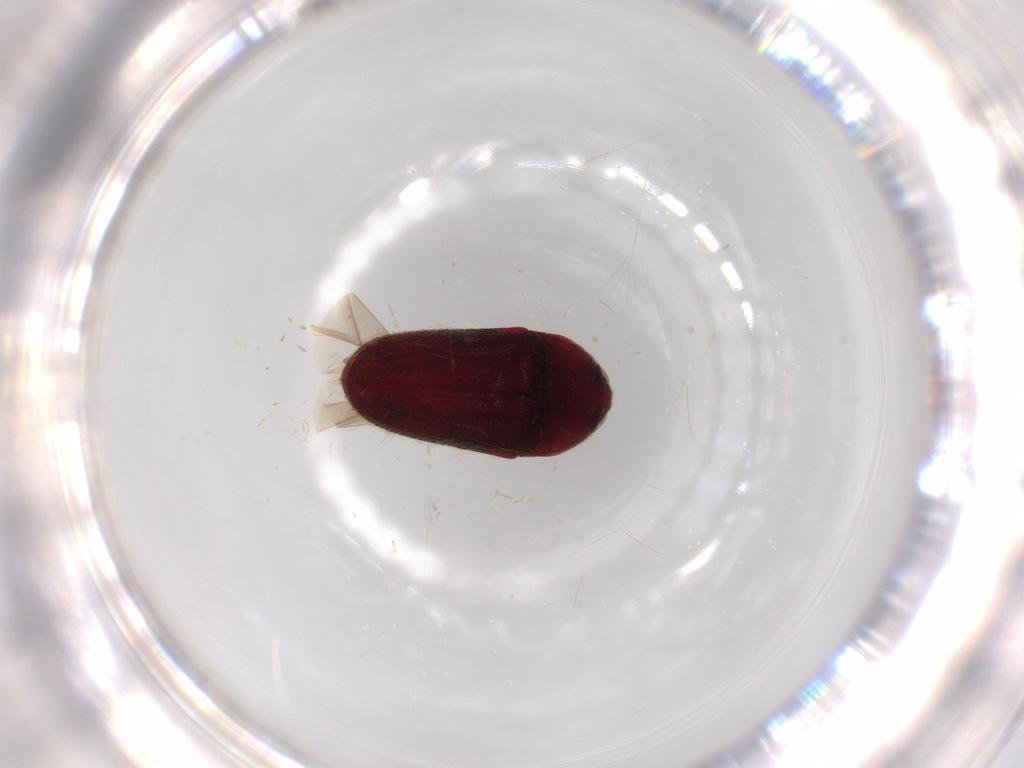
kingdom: Animalia
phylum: Arthropoda
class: Insecta
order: Coleoptera
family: Throscidae
